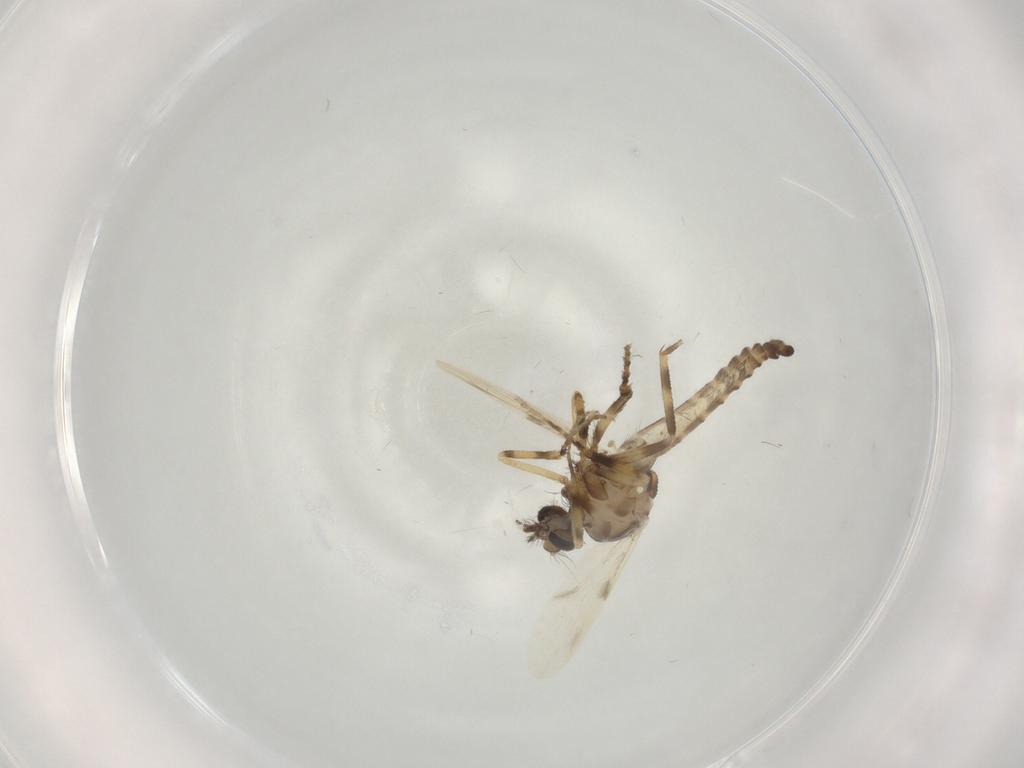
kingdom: Animalia
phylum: Arthropoda
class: Insecta
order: Diptera
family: Ceratopogonidae
